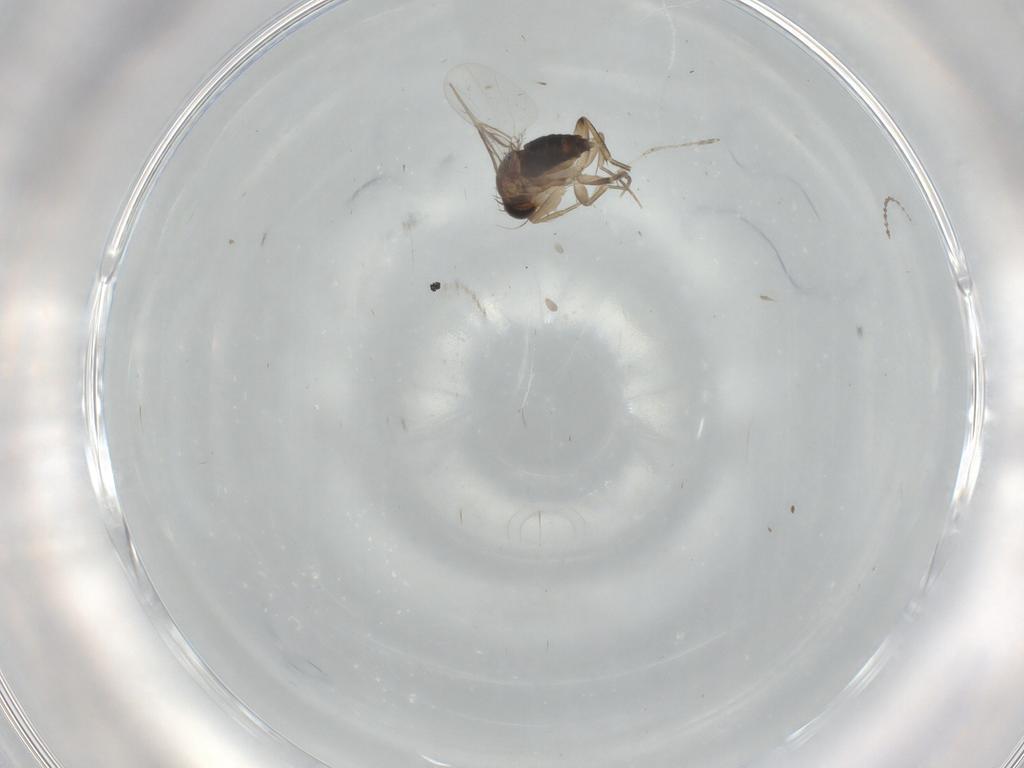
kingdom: Animalia
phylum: Arthropoda
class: Insecta
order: Diptera
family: Phoridae
